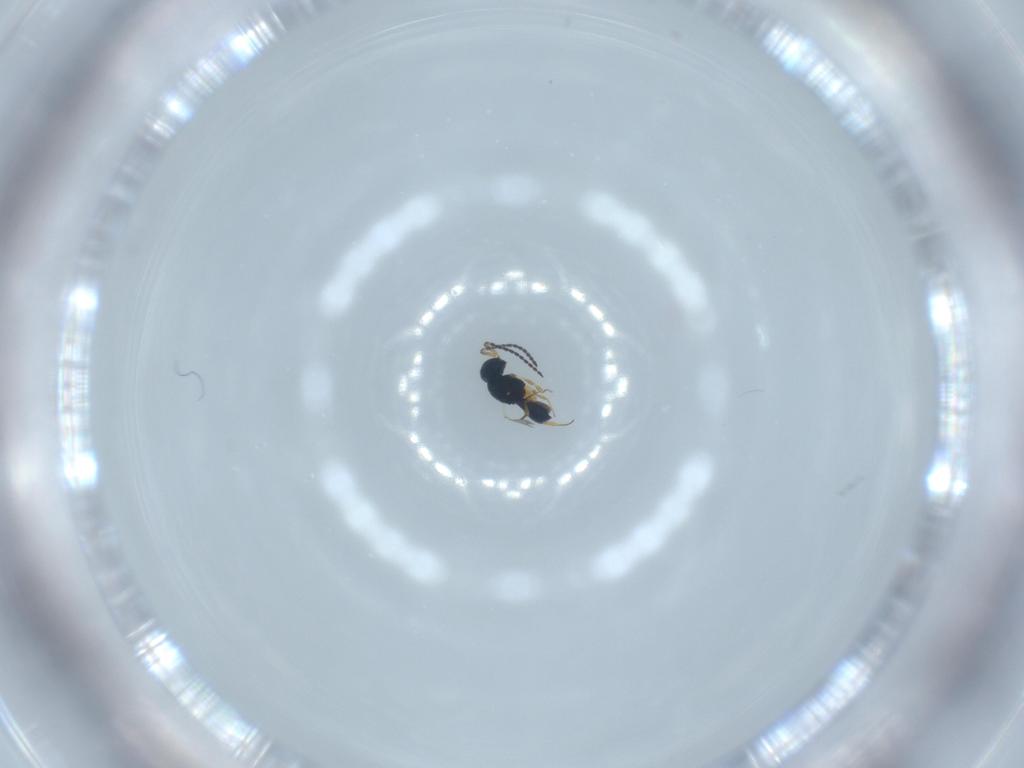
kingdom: Animalia
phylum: Arthropoda
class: Insecta
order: Hymenoptera
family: Scelionidae
